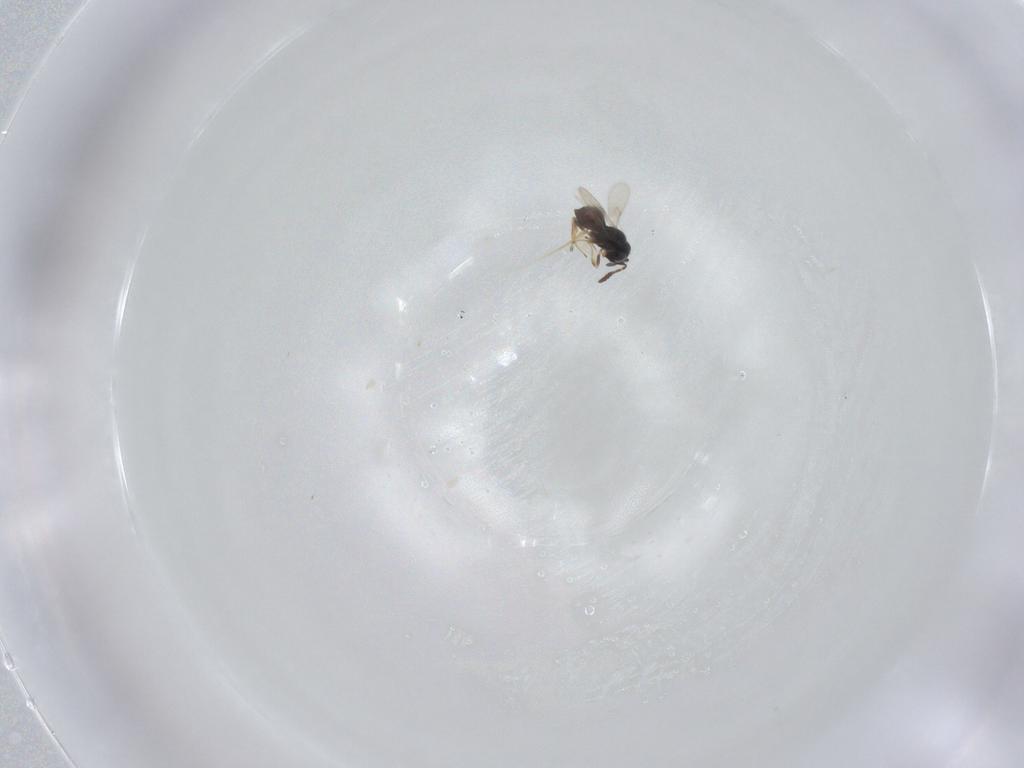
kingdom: Animalia
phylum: Arthropoda
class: Insecta
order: Hymenoptera
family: Scelionidae
